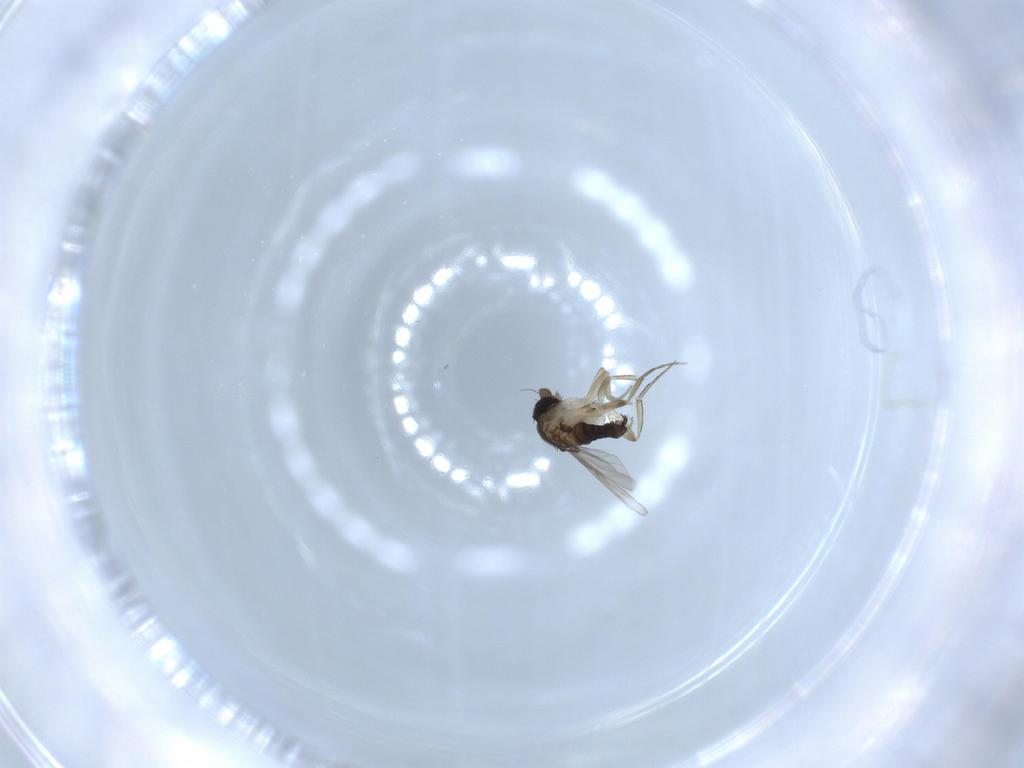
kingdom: Animalia
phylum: Arthropoda
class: Insecta
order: Diptera
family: Phoridae
